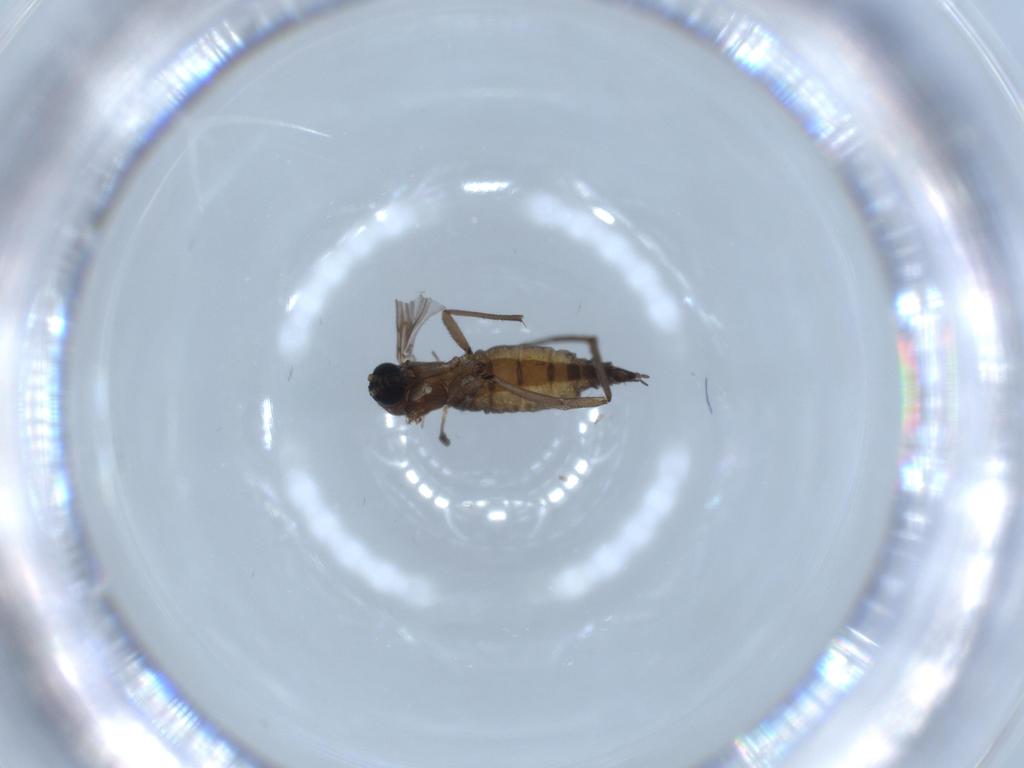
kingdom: Animalia
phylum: Arthropoda
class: Insecta
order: Diptera
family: Sciaridae
